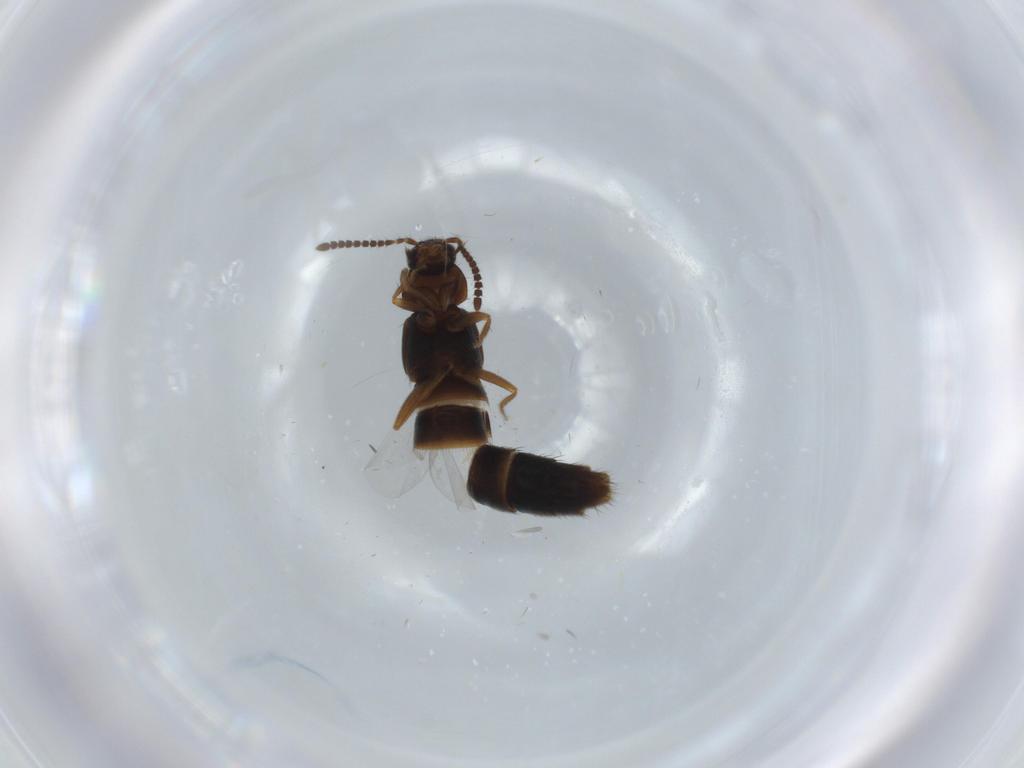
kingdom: Animalia
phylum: Arthropoda
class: Insecta
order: Coleoptera
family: Ripiphoridae
